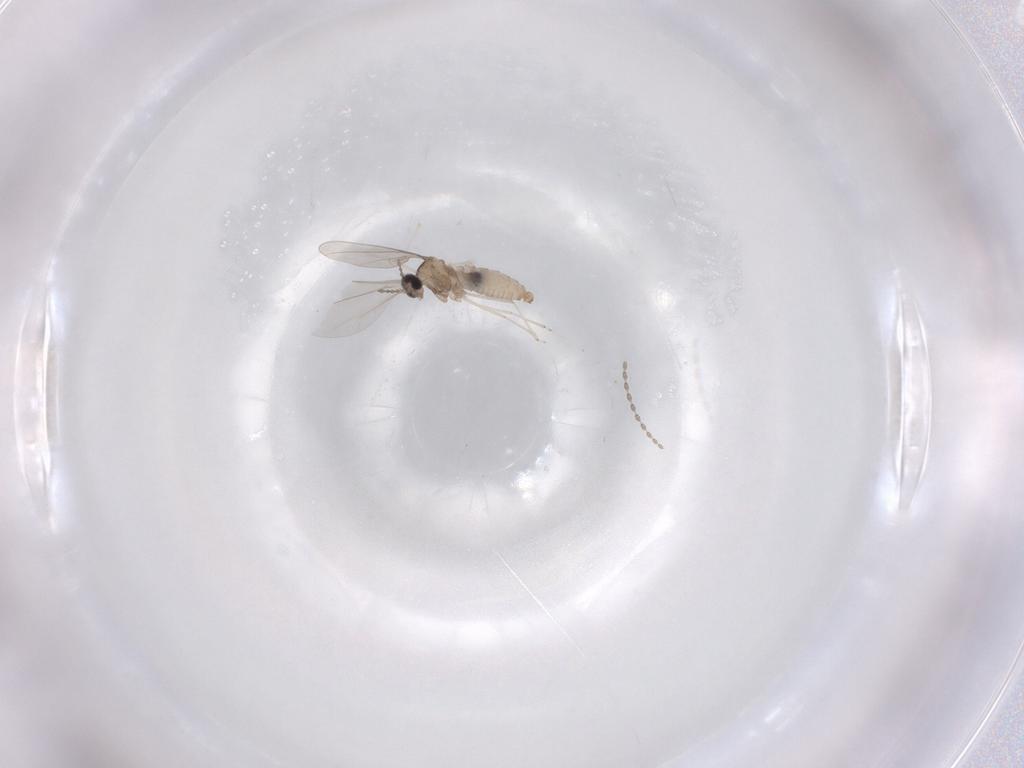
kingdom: Animalia
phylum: Arthropoda
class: Insecta
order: Diptera
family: Cecidomyiidae
